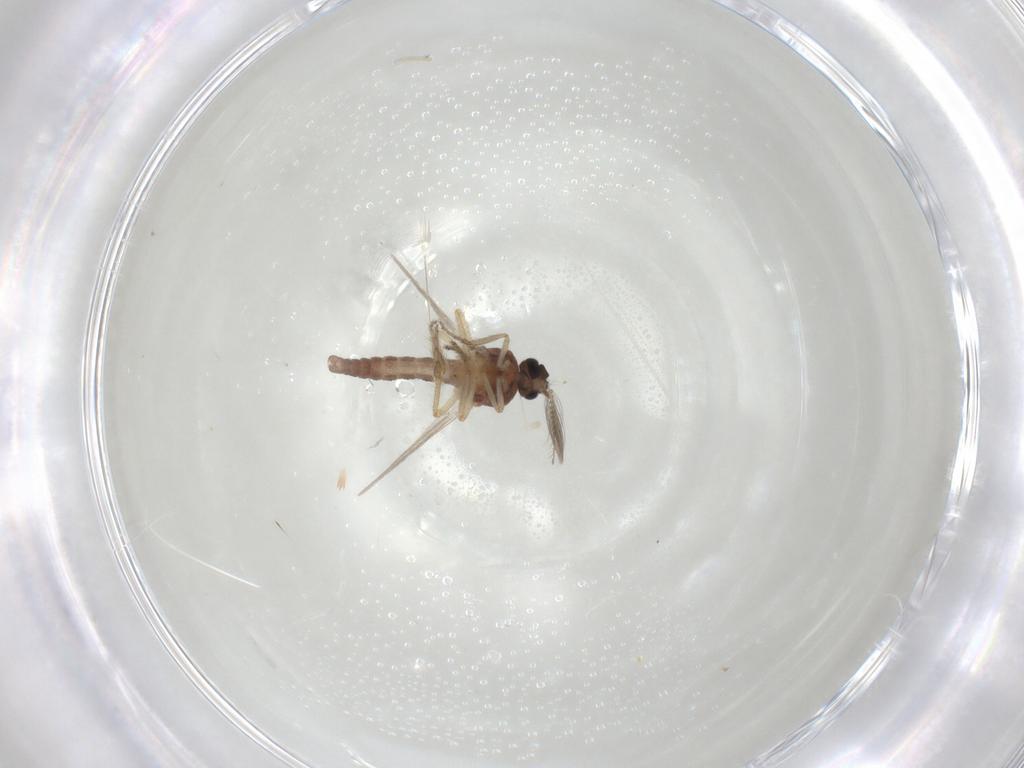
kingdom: Animalia
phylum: Arthropoda
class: Insecta
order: Diptera
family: Ceratopogonidae
